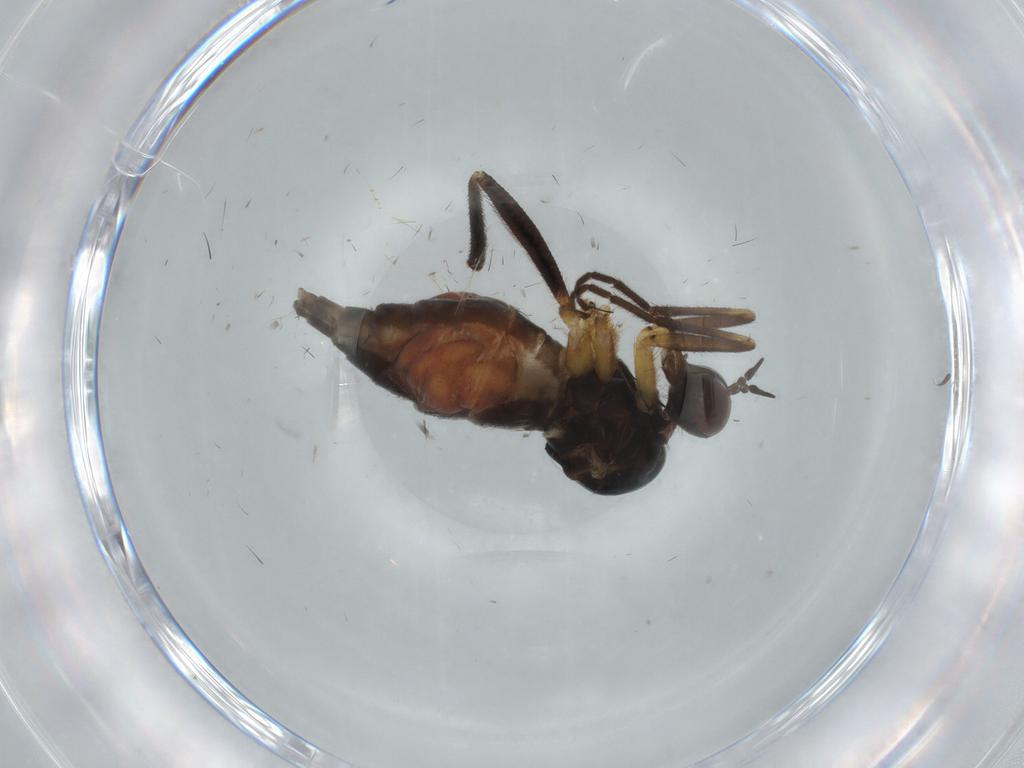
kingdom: Animalia
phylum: Arthropoda
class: Insecta
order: Diptera
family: Empididae
